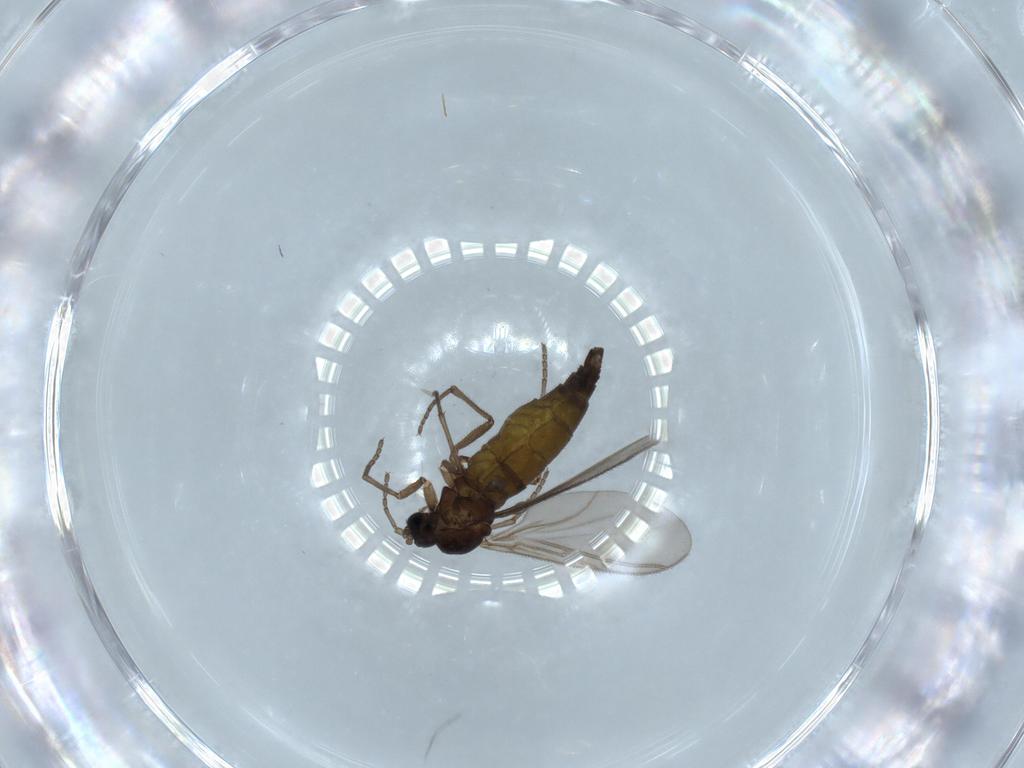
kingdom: Animalia
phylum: Arthropoda
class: Insecta
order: Diptera
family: Sciaridae
